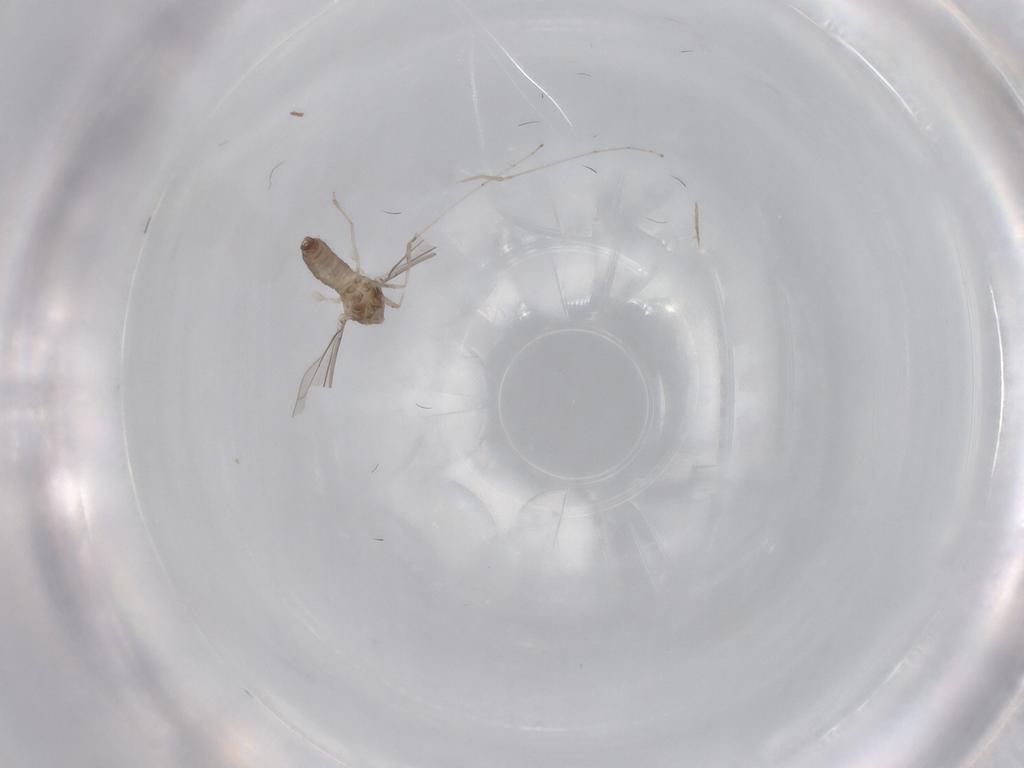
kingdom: Animalia
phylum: Arthropoda
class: Insecta
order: Diptera
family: Cecidomyiidae
